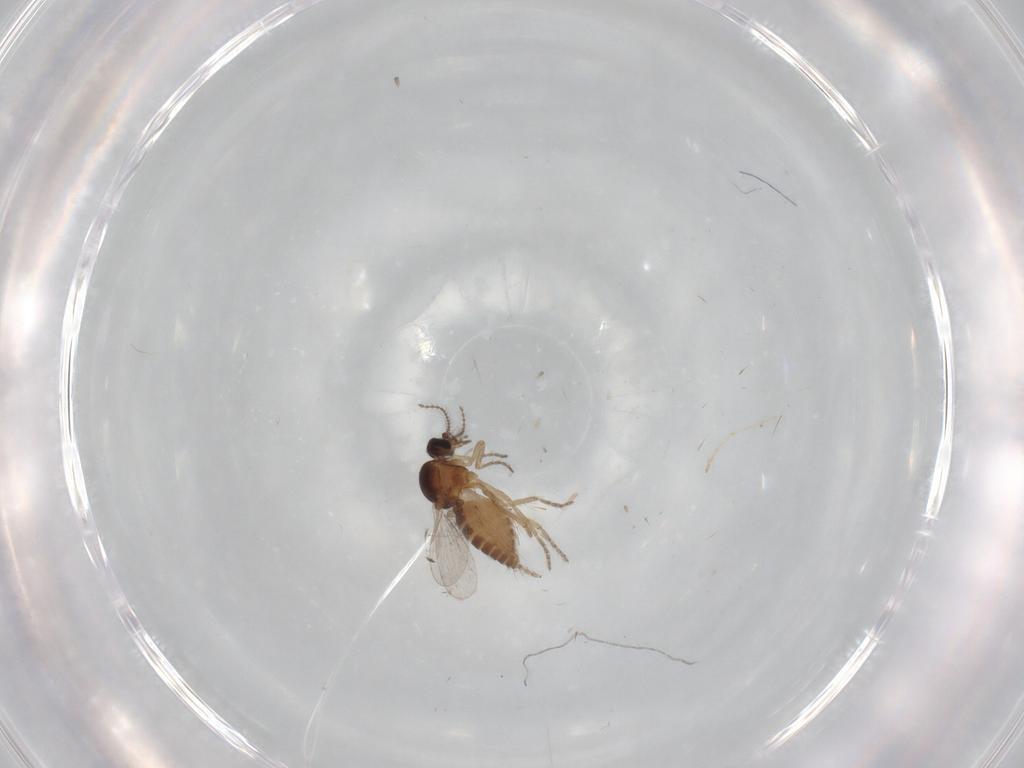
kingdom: Animalia
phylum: Arthropoda
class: Insecta
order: Diptera
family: Ceratopogonidae
